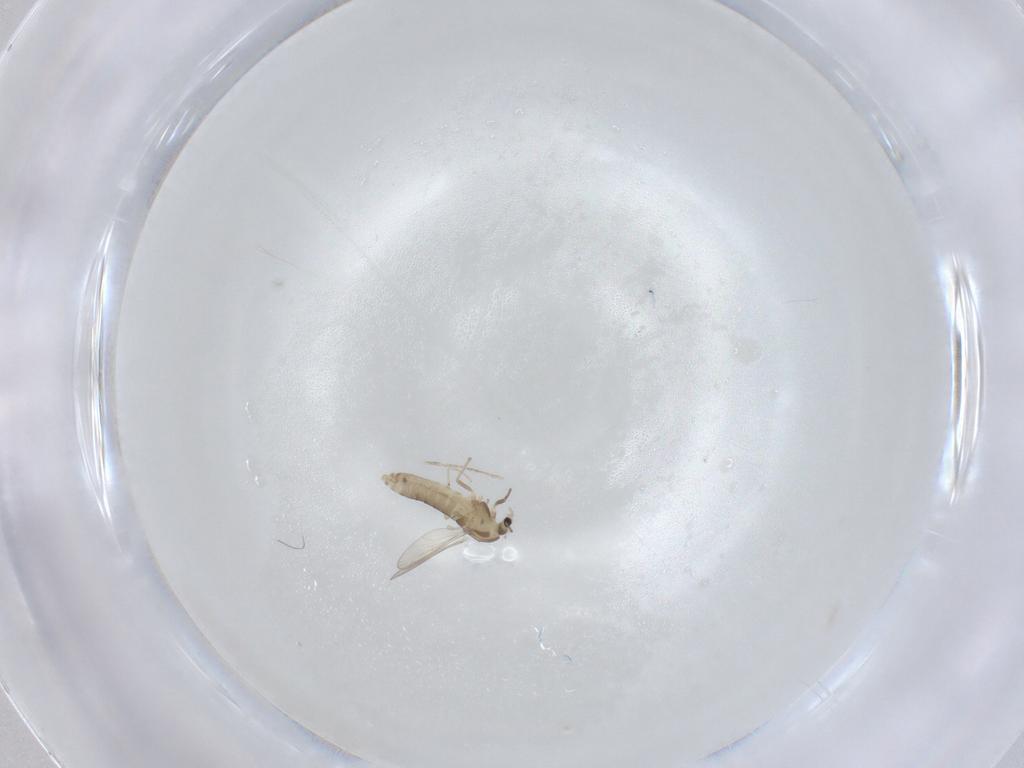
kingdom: Animalia
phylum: Arthropoda
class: Insecta
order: Diptera
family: Chironomidae
